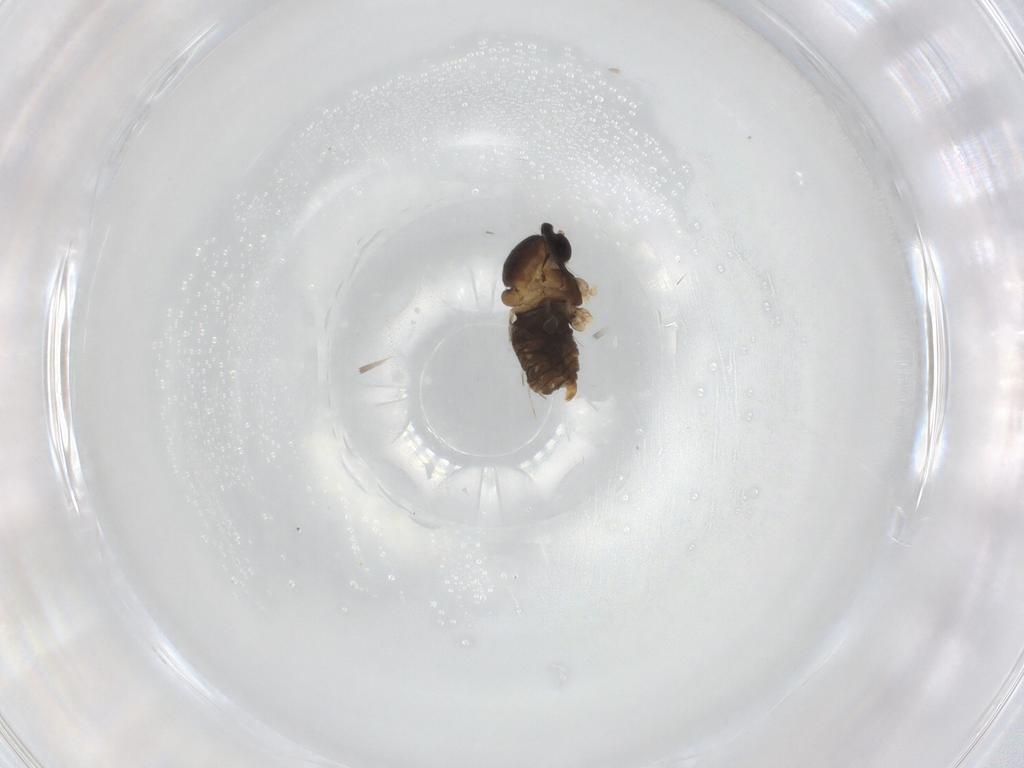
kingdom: Animalia
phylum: Arthropoda
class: Insecta
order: Diptera
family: Cecidomyiidae
